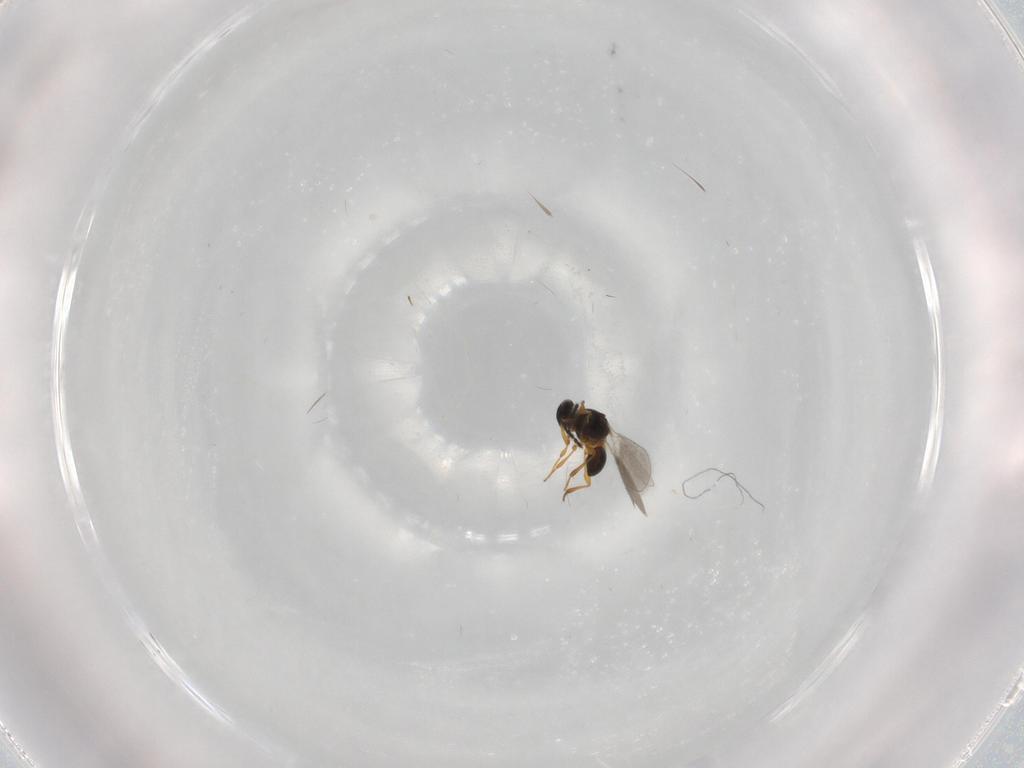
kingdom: Animalia
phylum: Arthropoda
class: Insecta
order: Hymenoptera
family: Platygastridae
